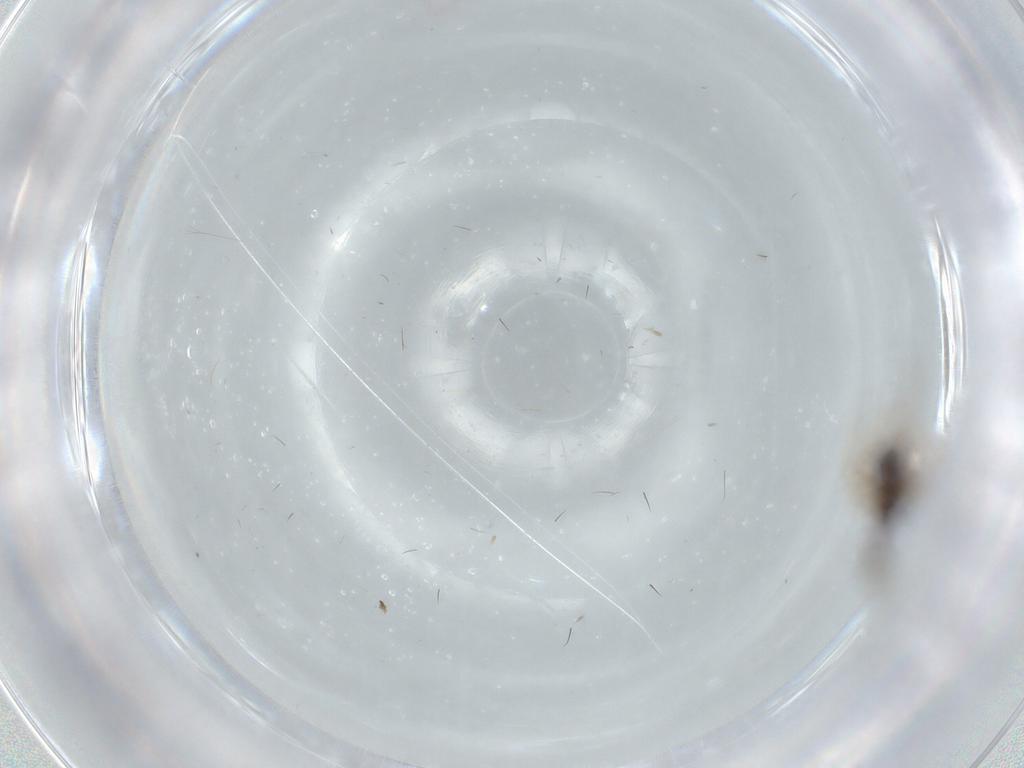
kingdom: Animalia
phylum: Arthropoda
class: Insecta
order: Hymenoptera
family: Figitidae
